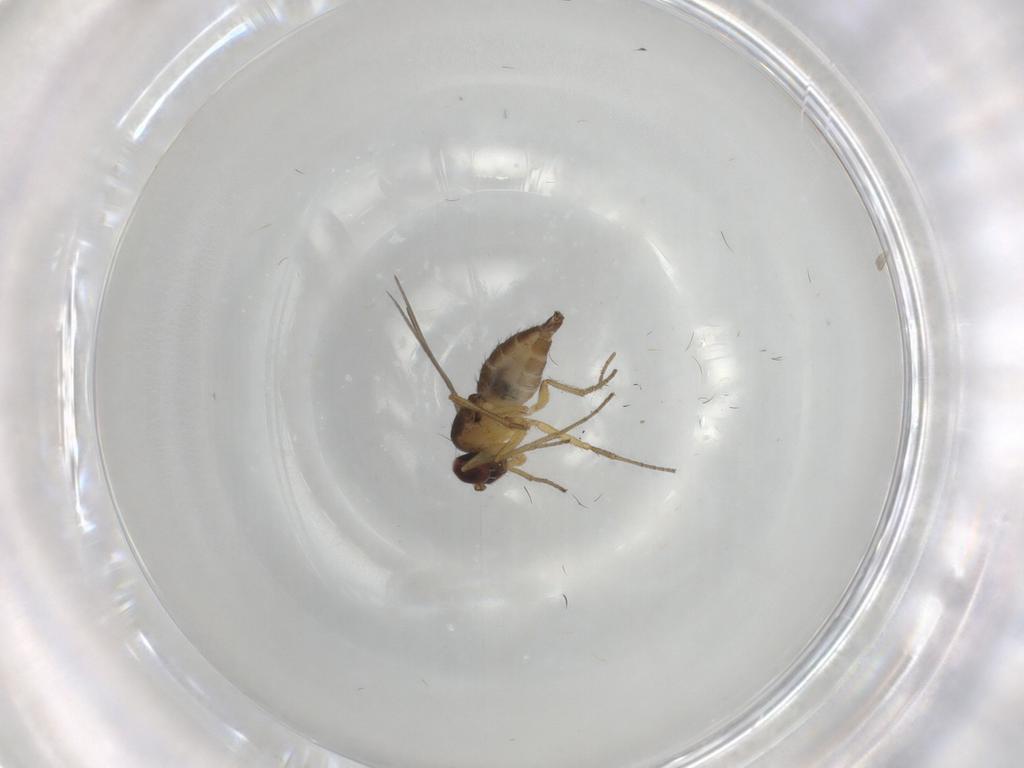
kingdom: Animalia
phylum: Arthropoda
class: Insecta
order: Diptera
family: Dolichopodidae
